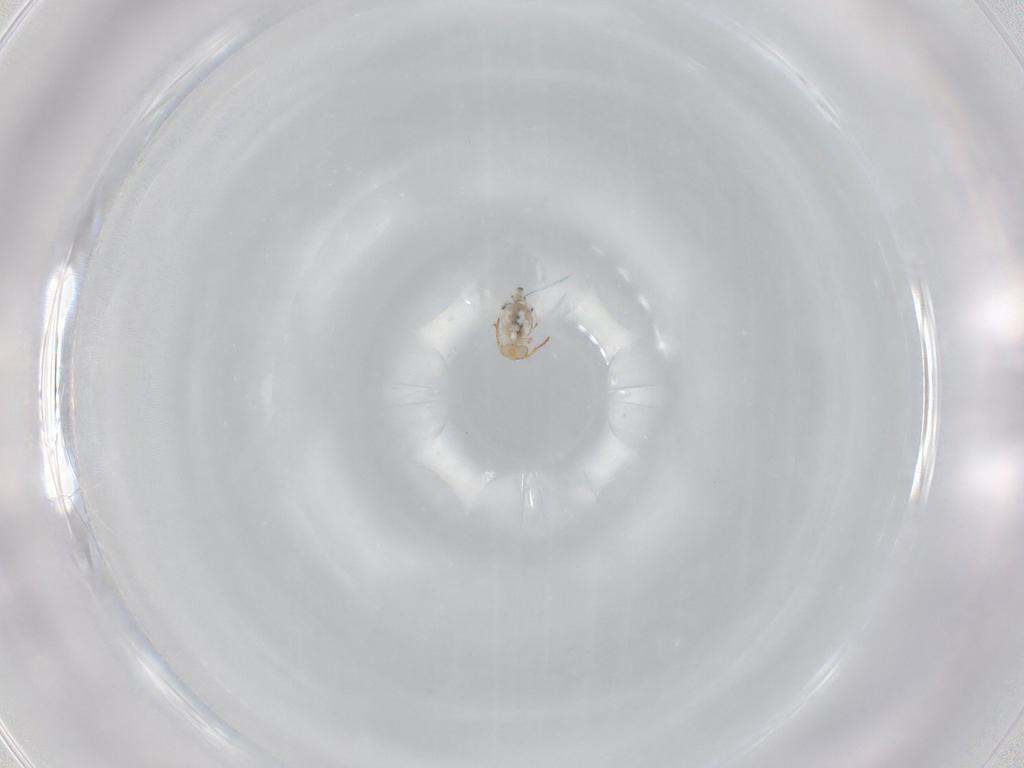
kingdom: Animalia
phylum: Arthropoda
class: Collembola
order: Symphypleona
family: Bourletiellidae
